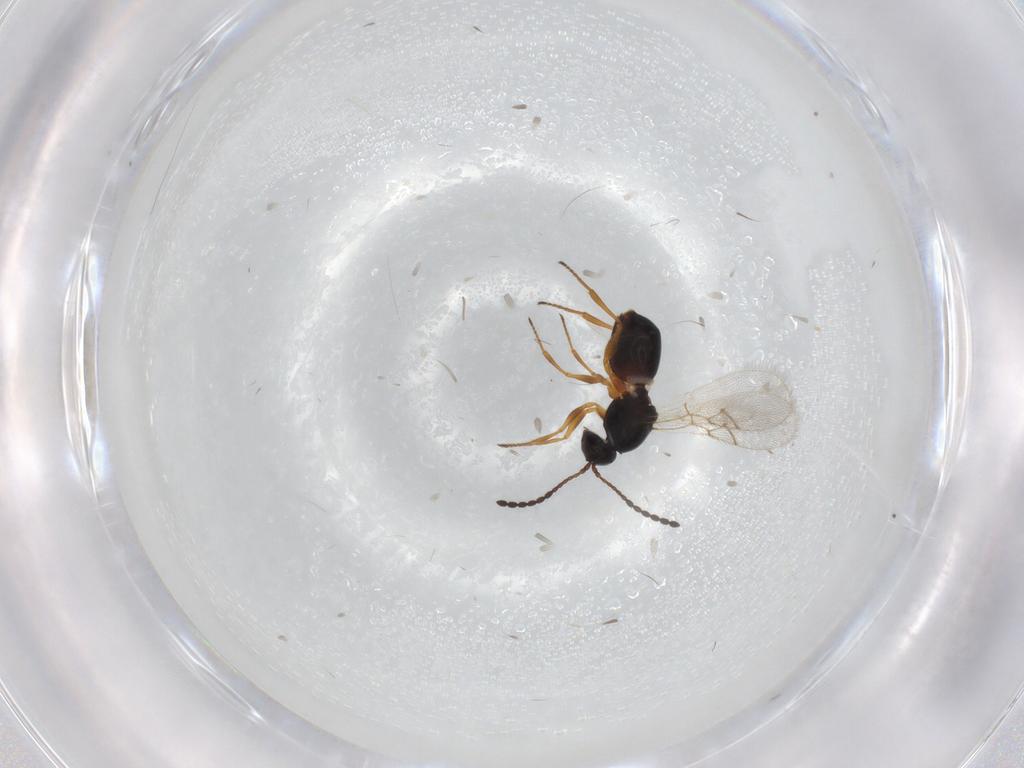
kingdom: Animalia
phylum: Arthropoda
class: Insecta
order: Hymenoptera
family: Figitidae
